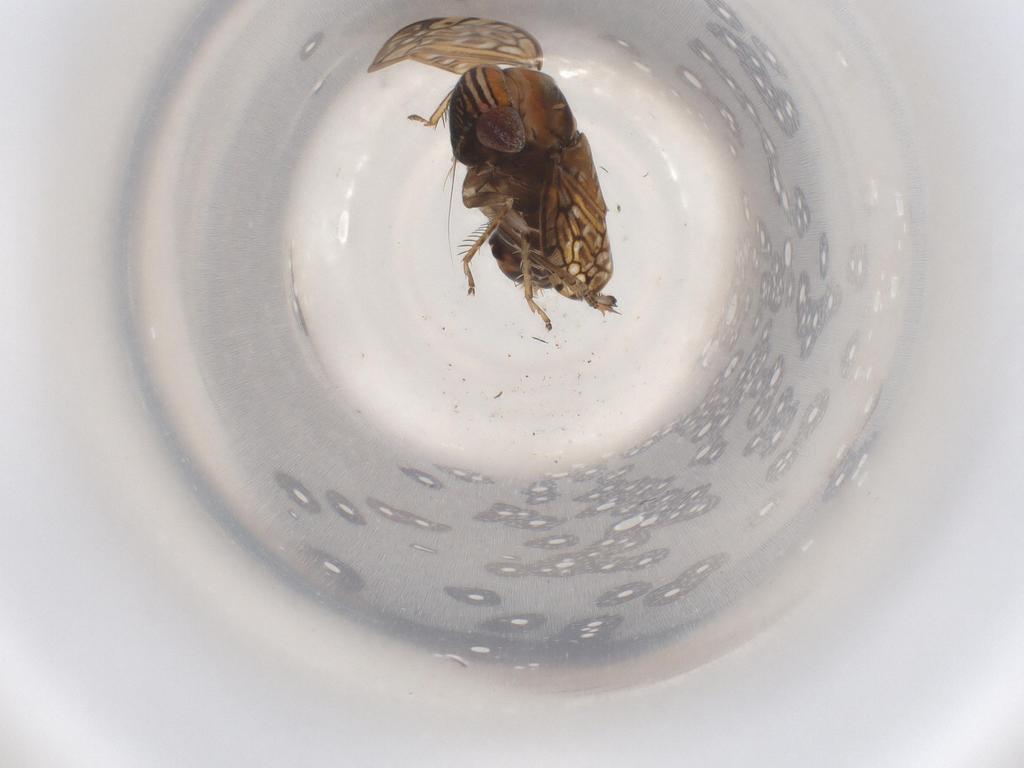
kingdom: Animalia
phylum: Arthropoda
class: Insecta
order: Hemiptera
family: Cicadellidae
